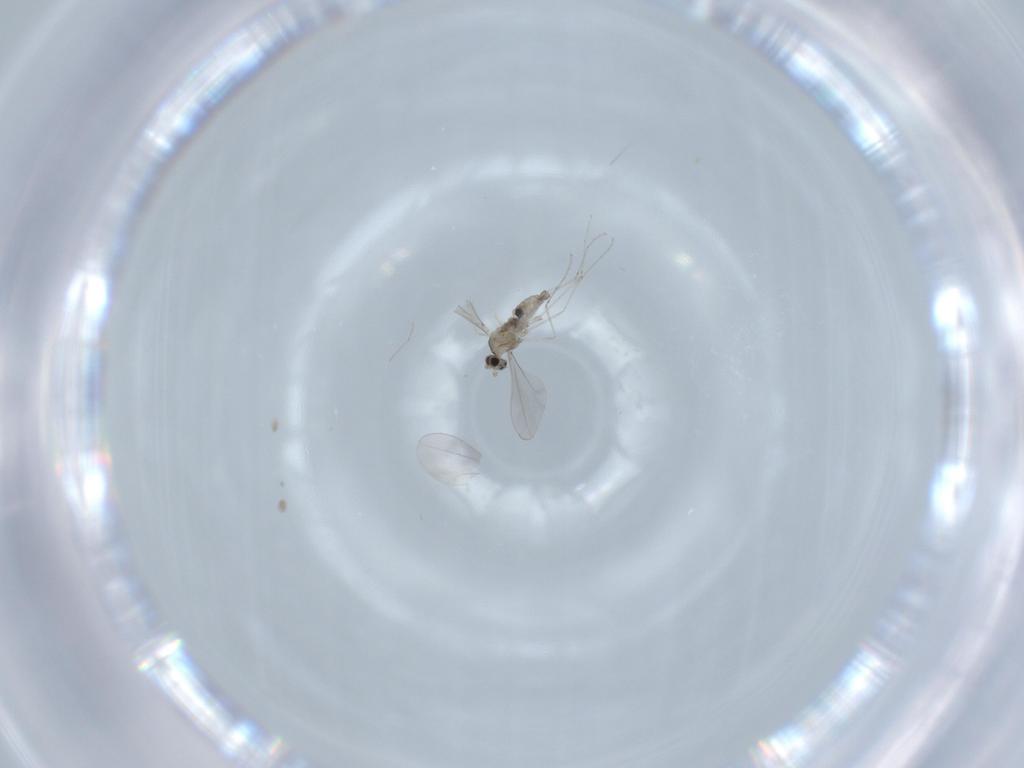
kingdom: Animalia
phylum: Arthropoda
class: Insecta
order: Diptera
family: Cecidomyiidae
